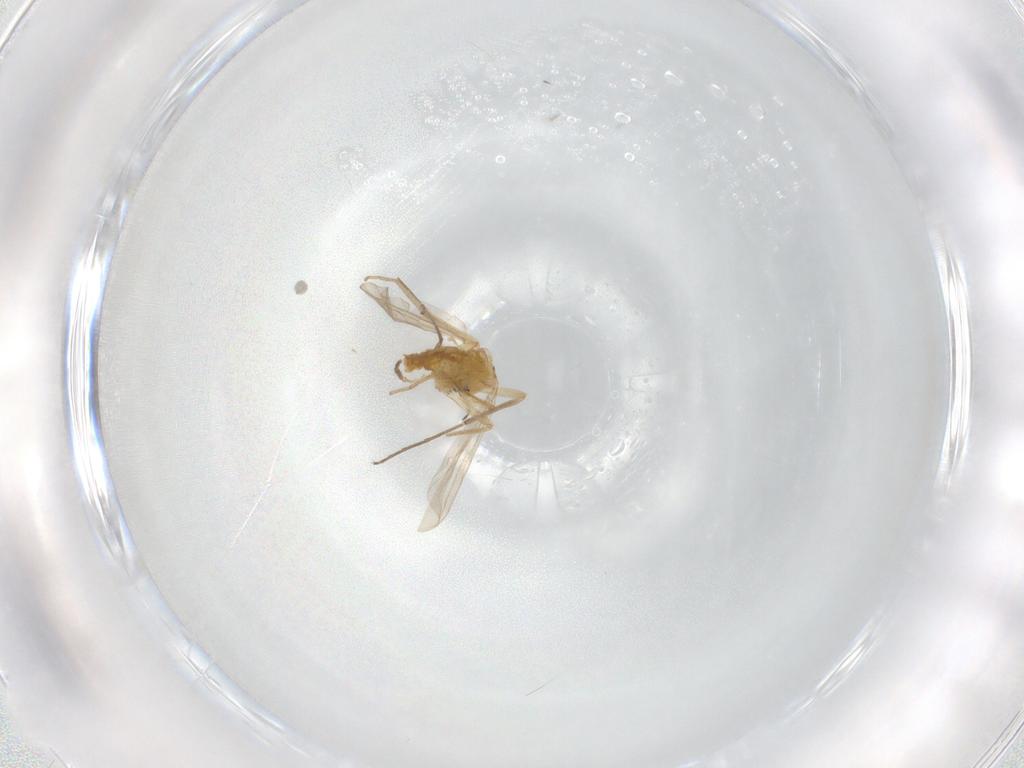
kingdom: Animalia
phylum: Arthropoda
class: Insecta
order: Diptera
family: Chironomidae
